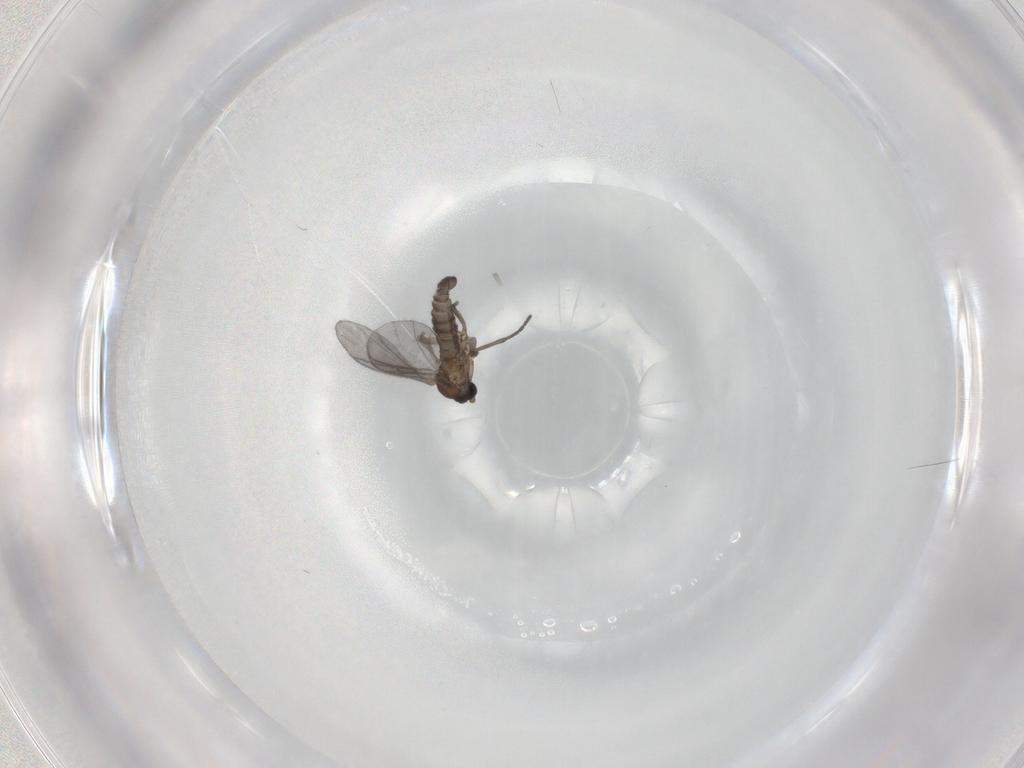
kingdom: Animalia
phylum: Arthropoda
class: Insecta
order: Diptera
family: Sciaridae
